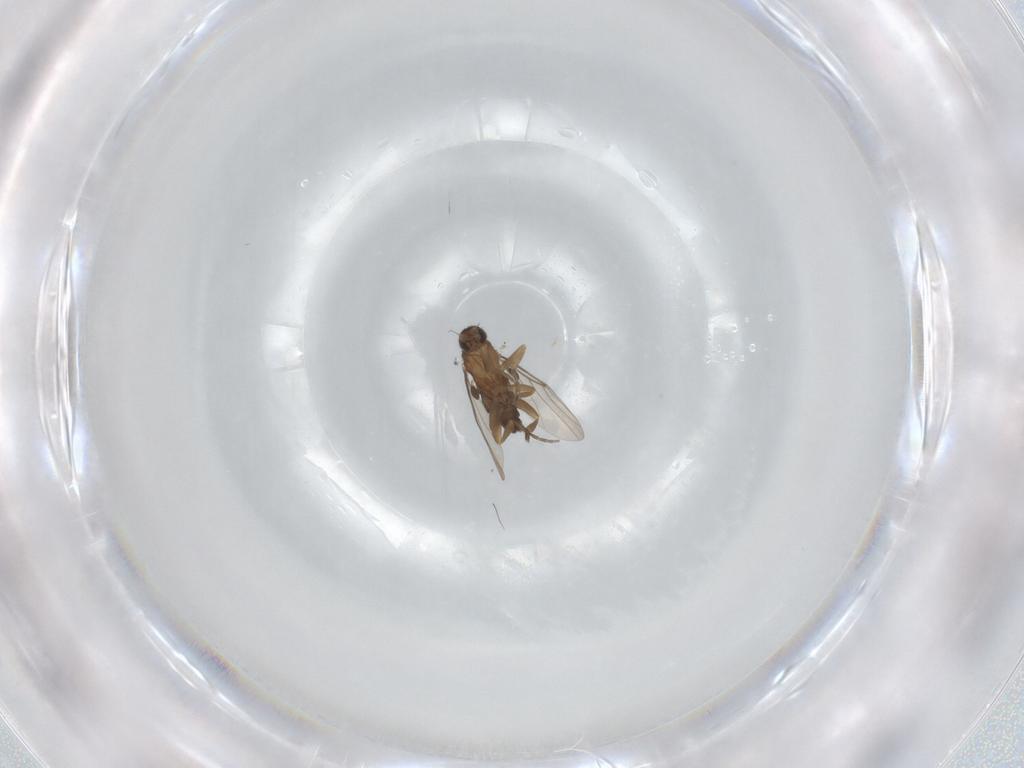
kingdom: Animalia
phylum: Arthropoda
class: Insecta
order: Diptera
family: Phoridae
